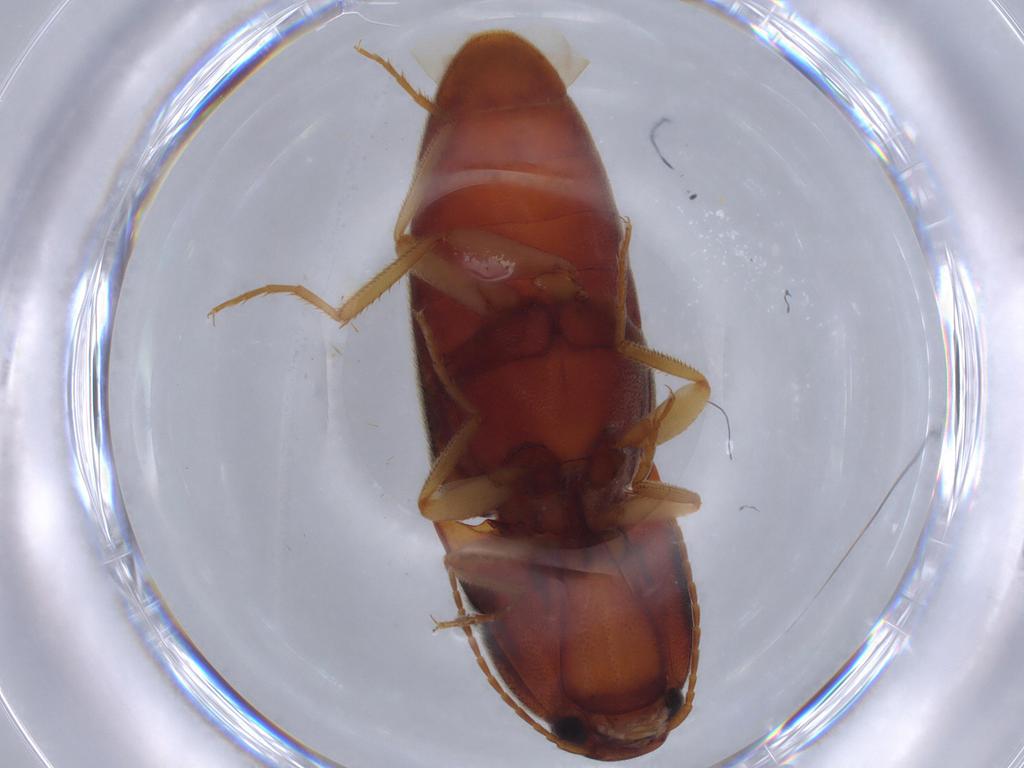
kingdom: Animalia
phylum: Arthropoda
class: Insecta
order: Coleoptera
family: Elateridae
